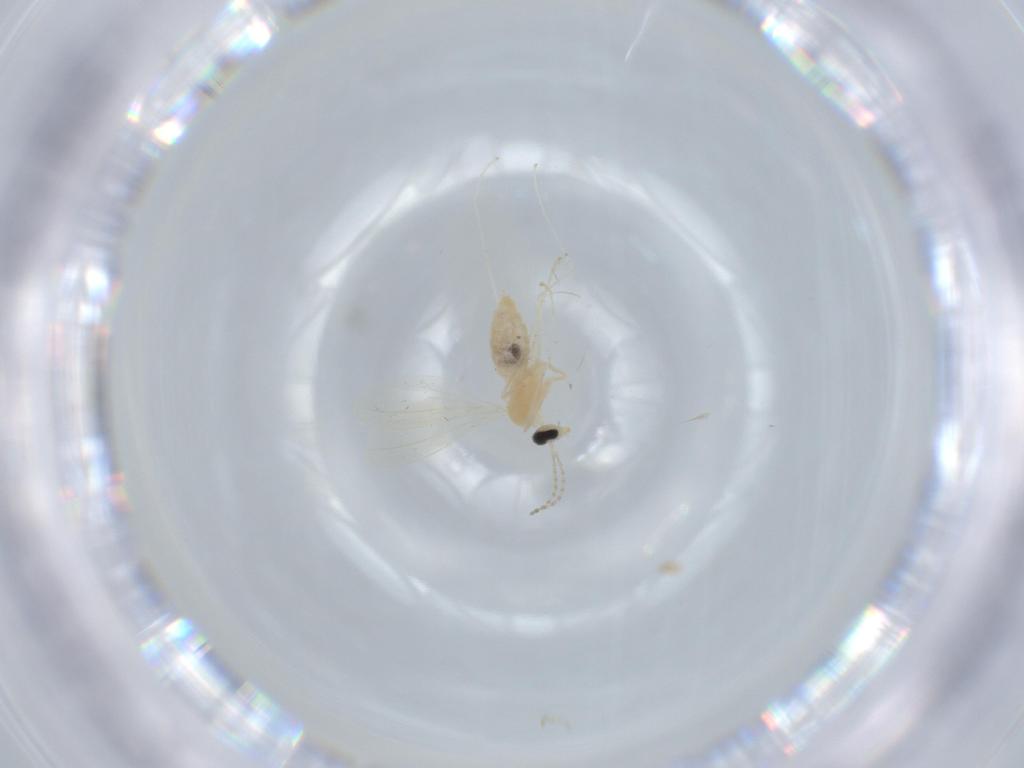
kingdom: Animalia
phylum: Arthropoda
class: Insecta
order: Diptera
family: Cecidomyiidae
